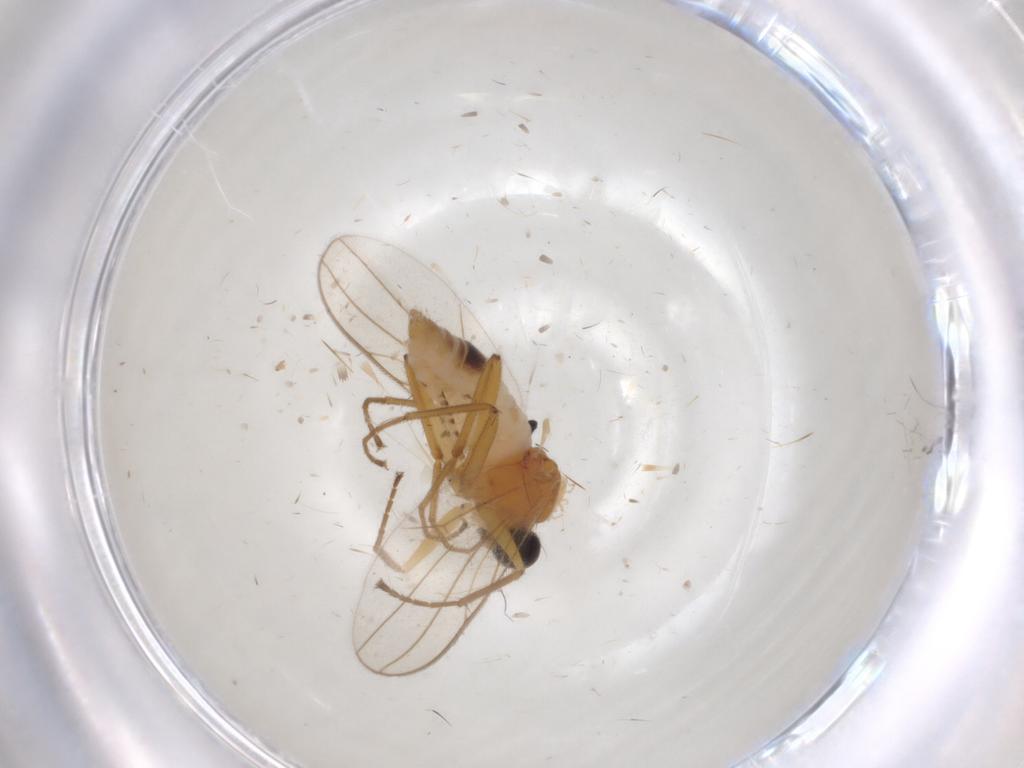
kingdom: Animalia
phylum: Arthropoda
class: Insecta
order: Diptera
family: Hybotidae
